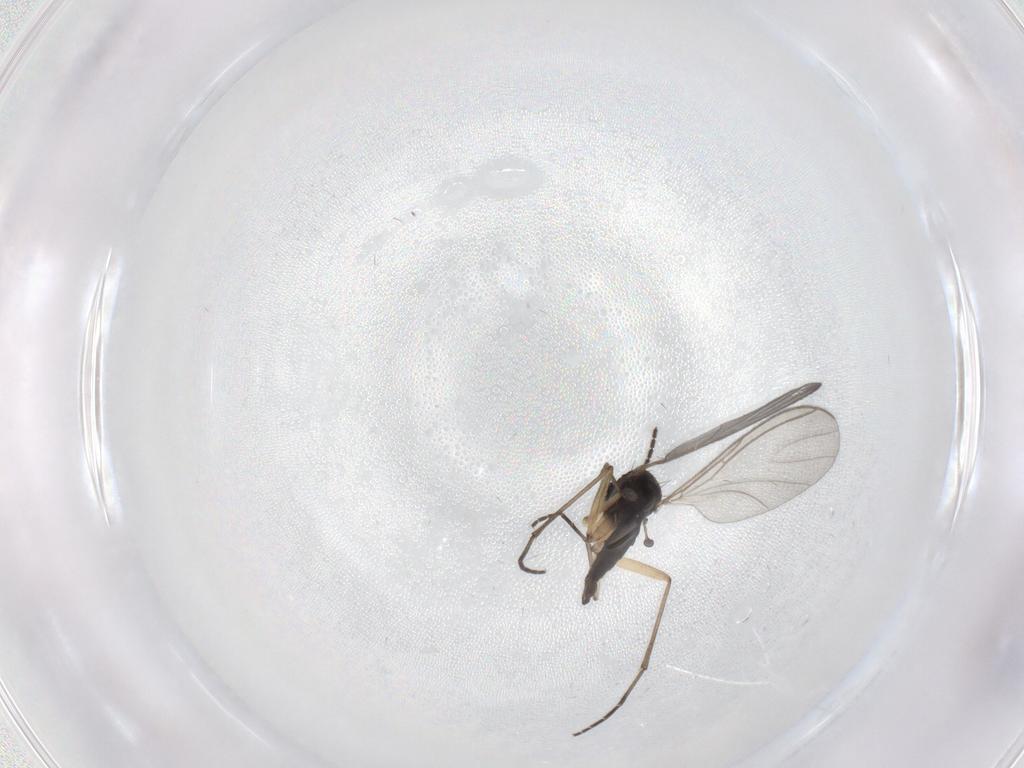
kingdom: Animalia
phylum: Arthropoda
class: Insecta
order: Diptera
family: Sciaridae
